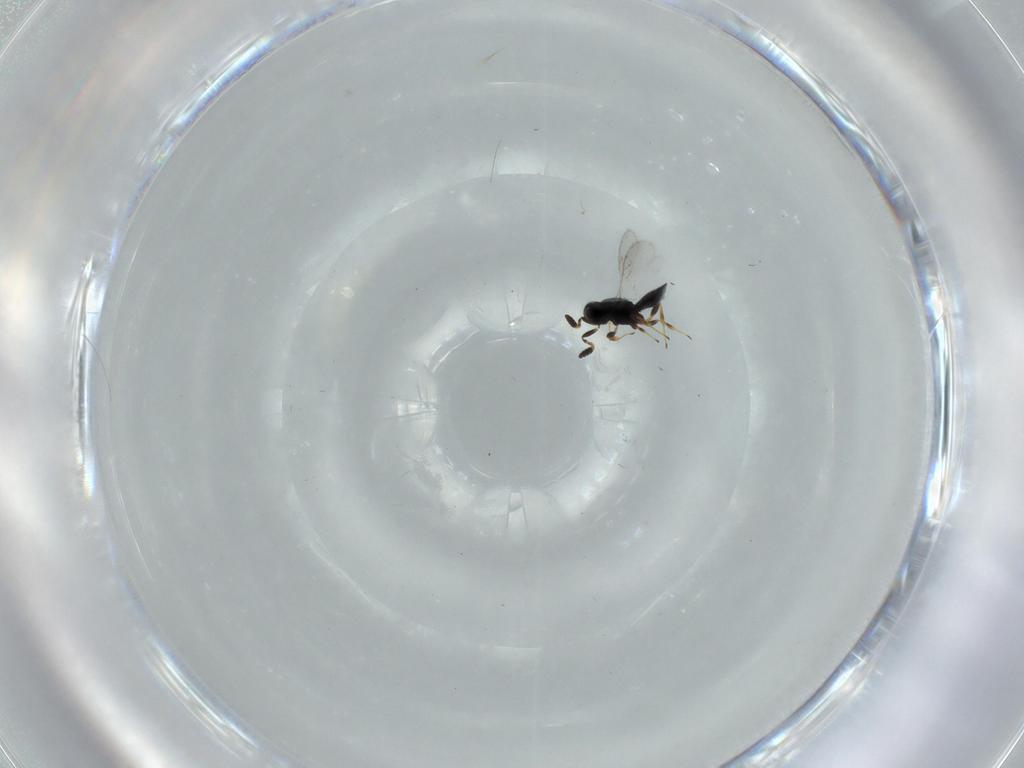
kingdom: Animalia
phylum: Arthropoda
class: Insecta
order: Hymenoptera
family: Scelionidae
